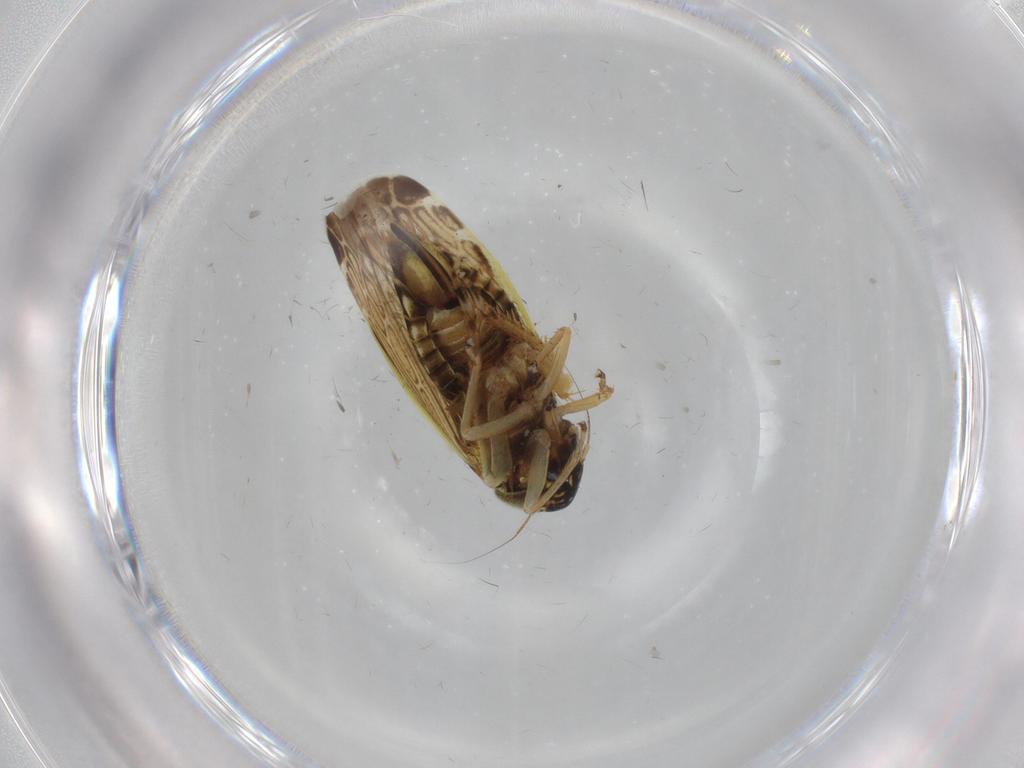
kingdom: Animalia
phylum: Arthropoda
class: Insecta
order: Hemiptera
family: Cicadellidae
